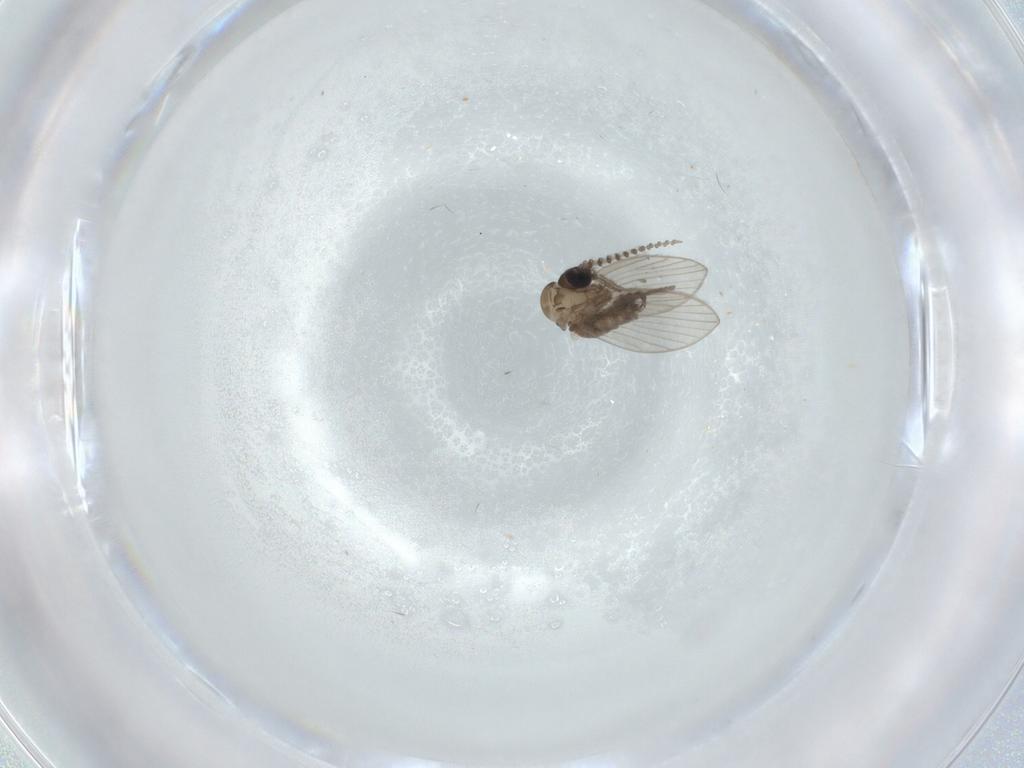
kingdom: Animalia
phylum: Arthropoda
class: Insecta
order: Diptera
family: Psychodidae
